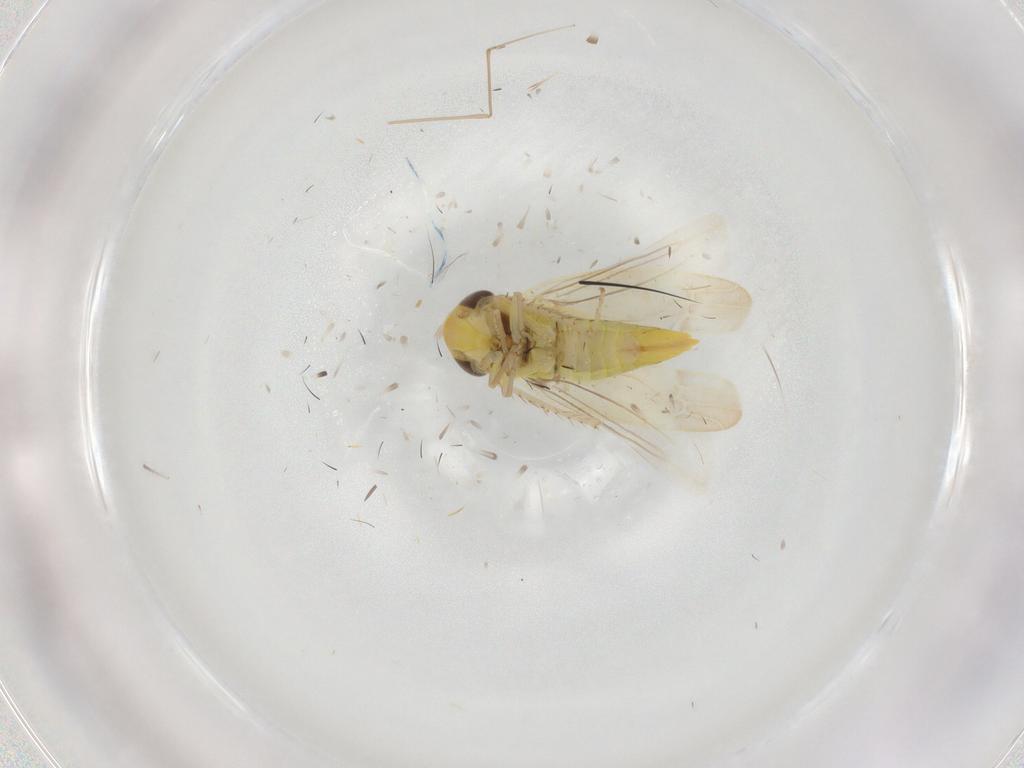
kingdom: Animalia
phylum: Arthropoda
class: Insecta
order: Hemiptera
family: Cicadellidae
